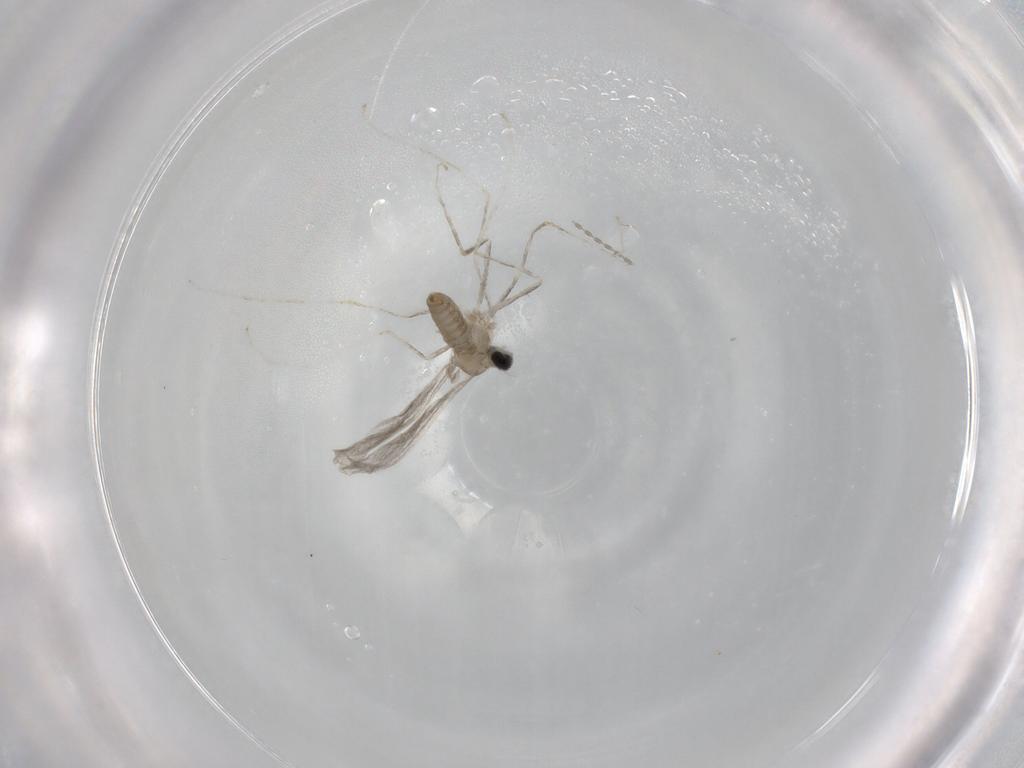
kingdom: Animalia
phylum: Arthropoda
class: Insecta
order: Diptera
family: Cecidomyiidae
